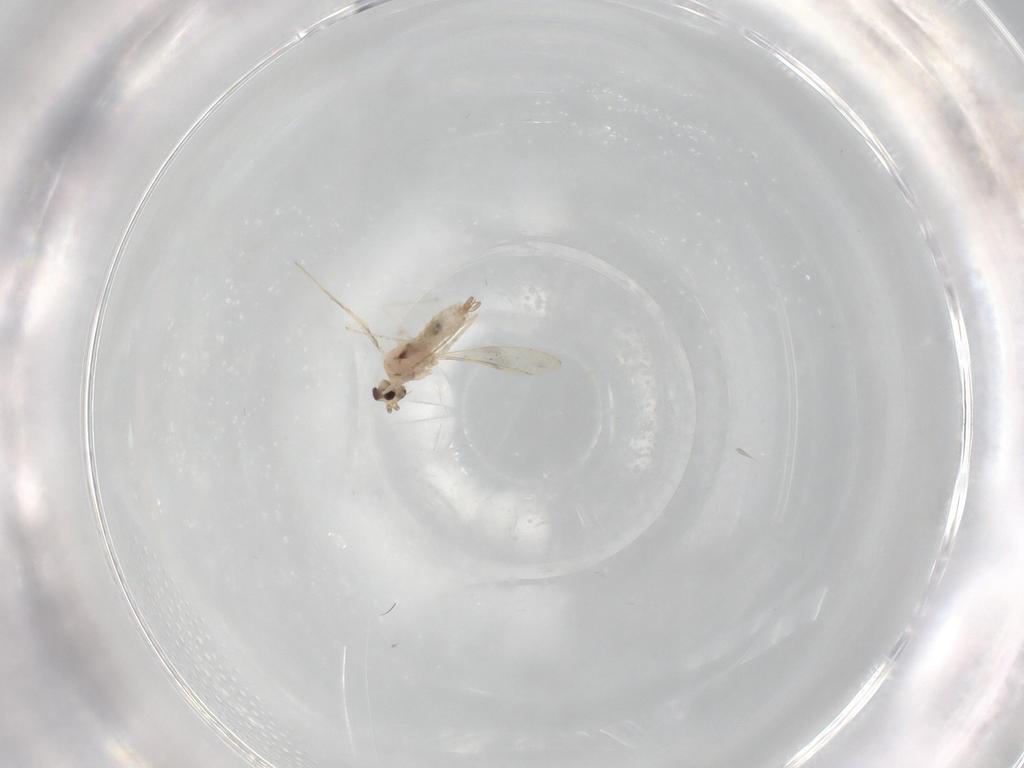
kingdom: Animalia
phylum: Arthropoda
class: Insecta
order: Diptera
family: Cecidomyiidae
